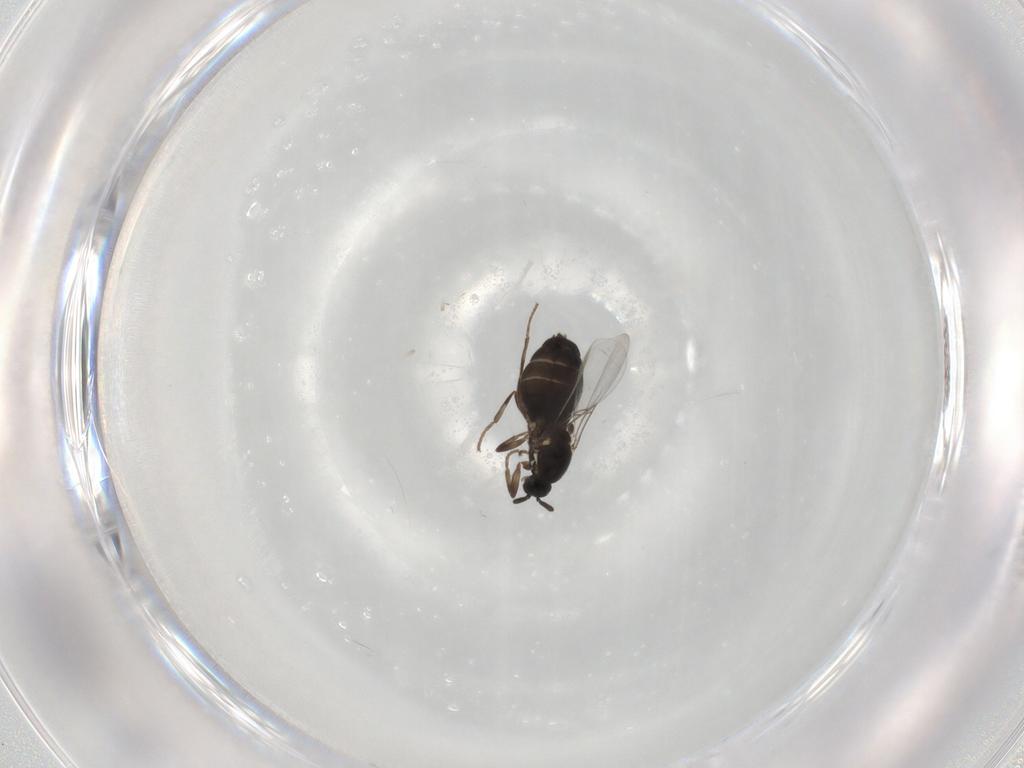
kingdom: Animalia
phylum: Arthropoda
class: Insecta
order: Diptera
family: Scatopsidae
